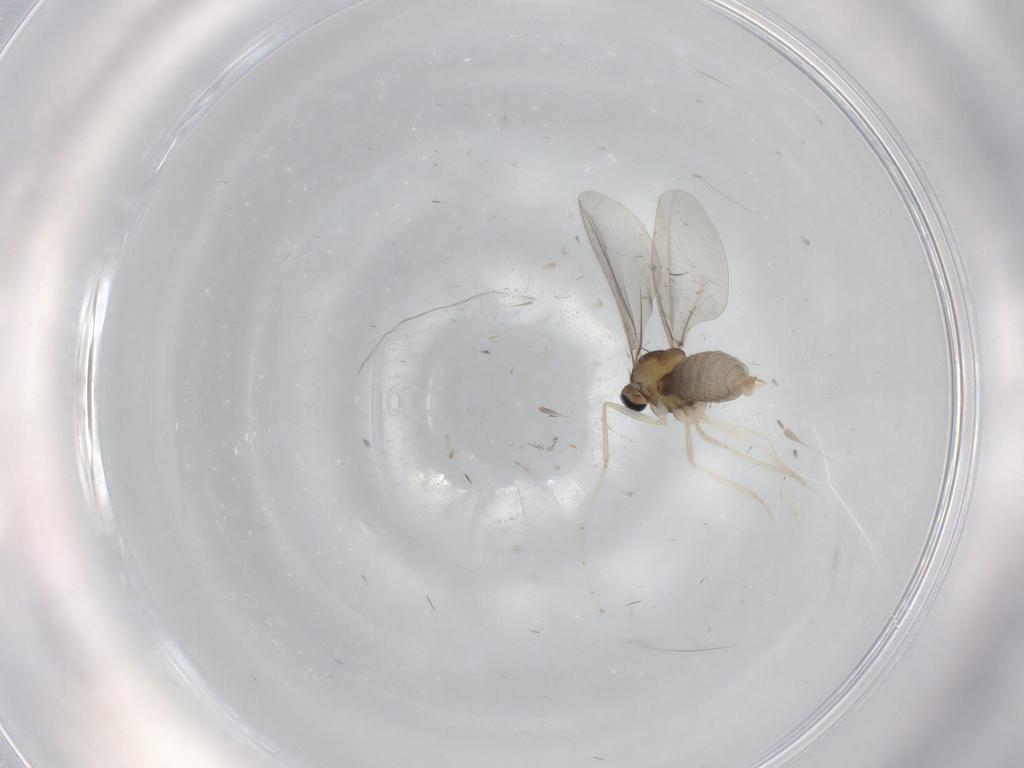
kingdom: Animalia
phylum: Arthropoda
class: Insecta
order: Diptera
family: Cecidomyiidae
